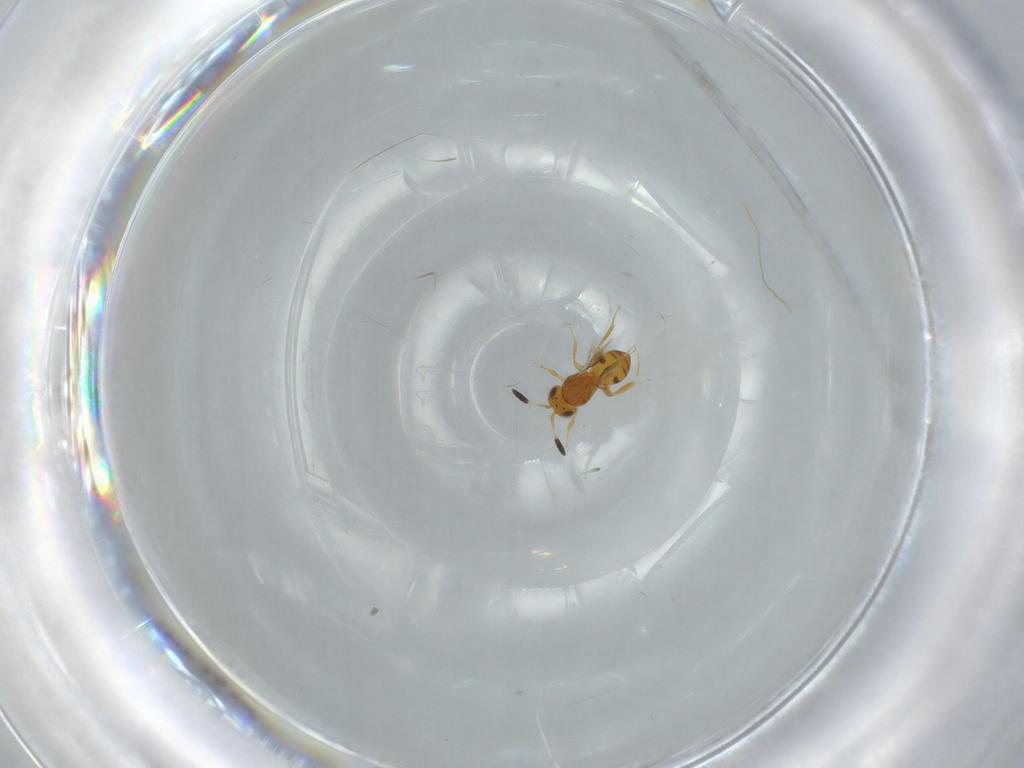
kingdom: Animalia
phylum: Arthropoda
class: Insecta
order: Hymenoptera
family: Scelionidae
